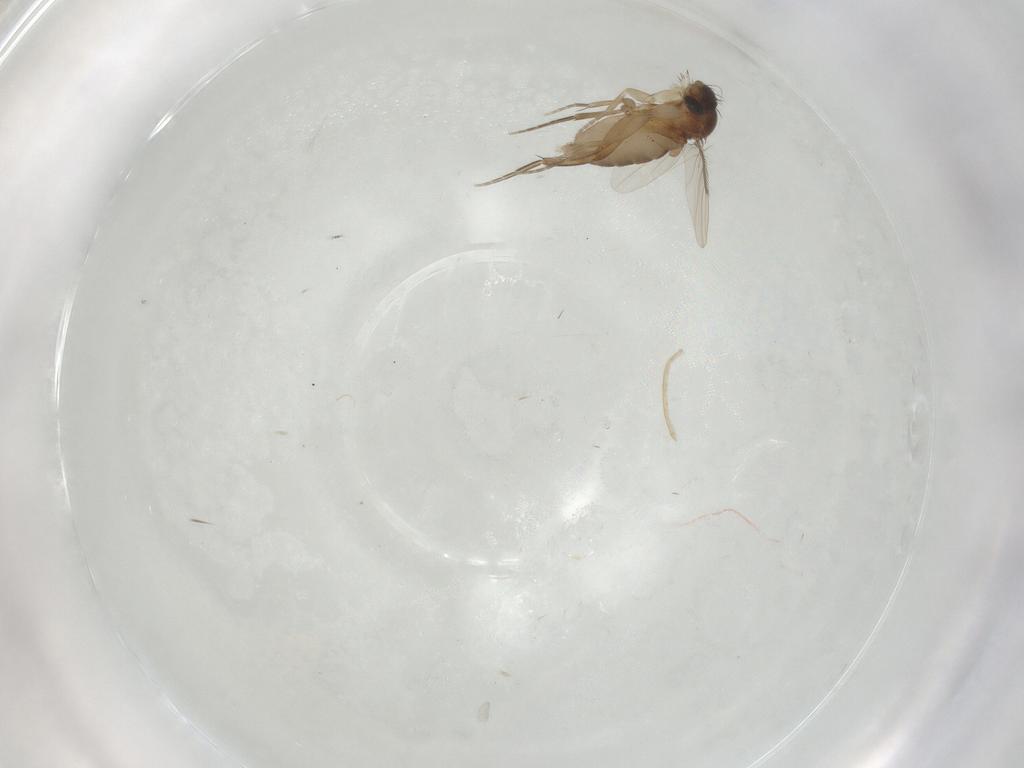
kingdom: Animalia
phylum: Arthropoda
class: Insecta
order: Diptera
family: Phoridae
